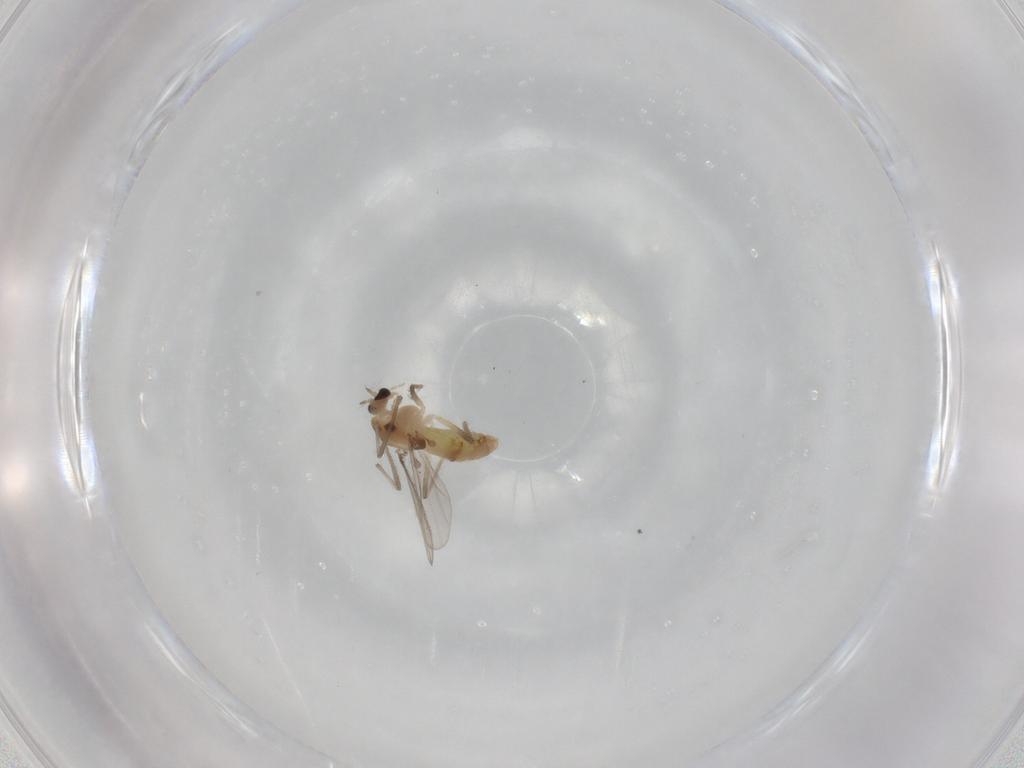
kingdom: Animalia
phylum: Arthropoda
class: Insecta
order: Diptera
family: Chironomidae
